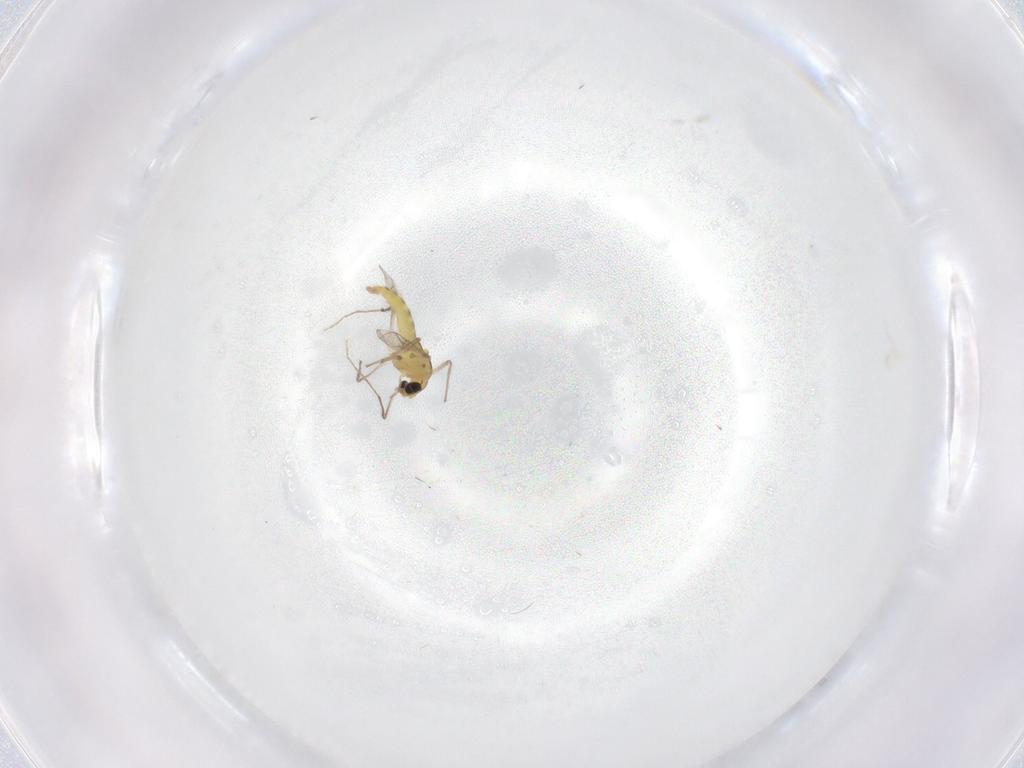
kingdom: Animalia
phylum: Arthropoda
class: Insecta
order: Diptera
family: Chironomidae
